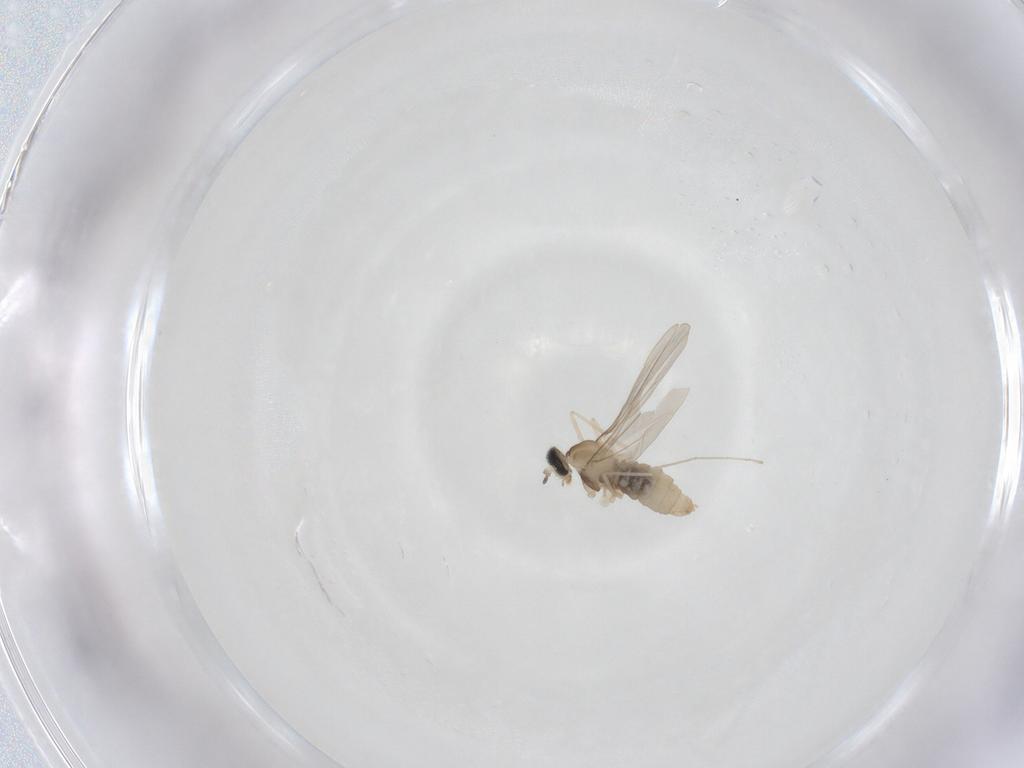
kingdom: Animalia
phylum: Arthropoda
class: Insecta
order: Diptera
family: Cecidomyiidae
